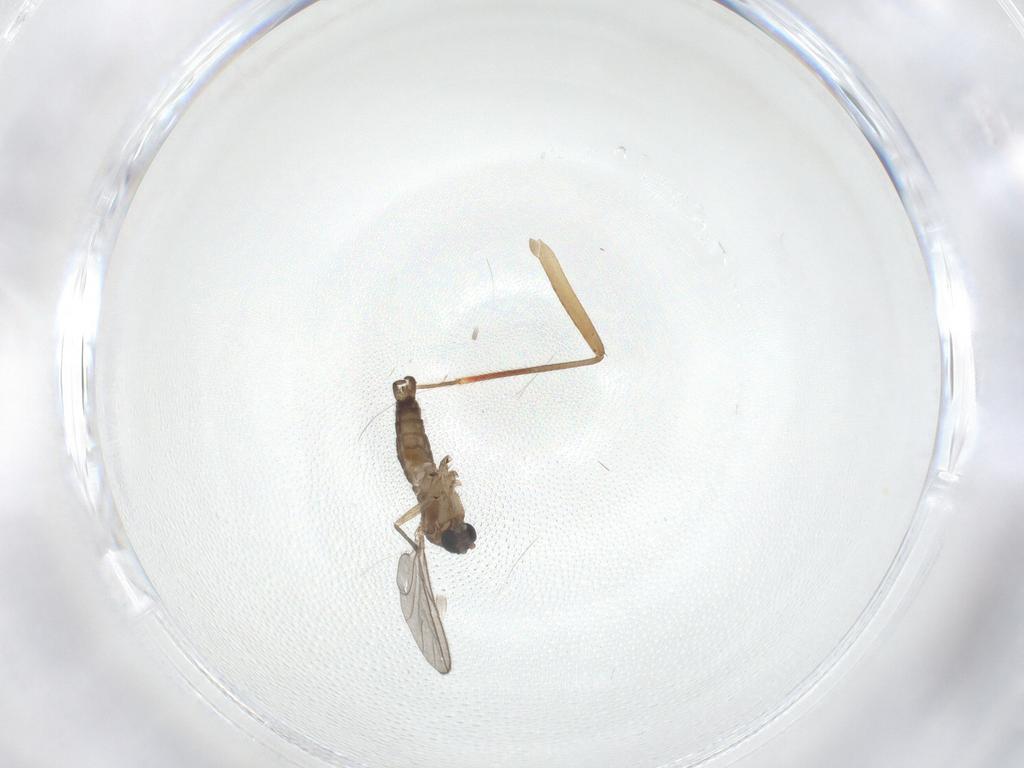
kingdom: Animalia
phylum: Arthropoda
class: Insecta
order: Diptera
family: Sciaridae
